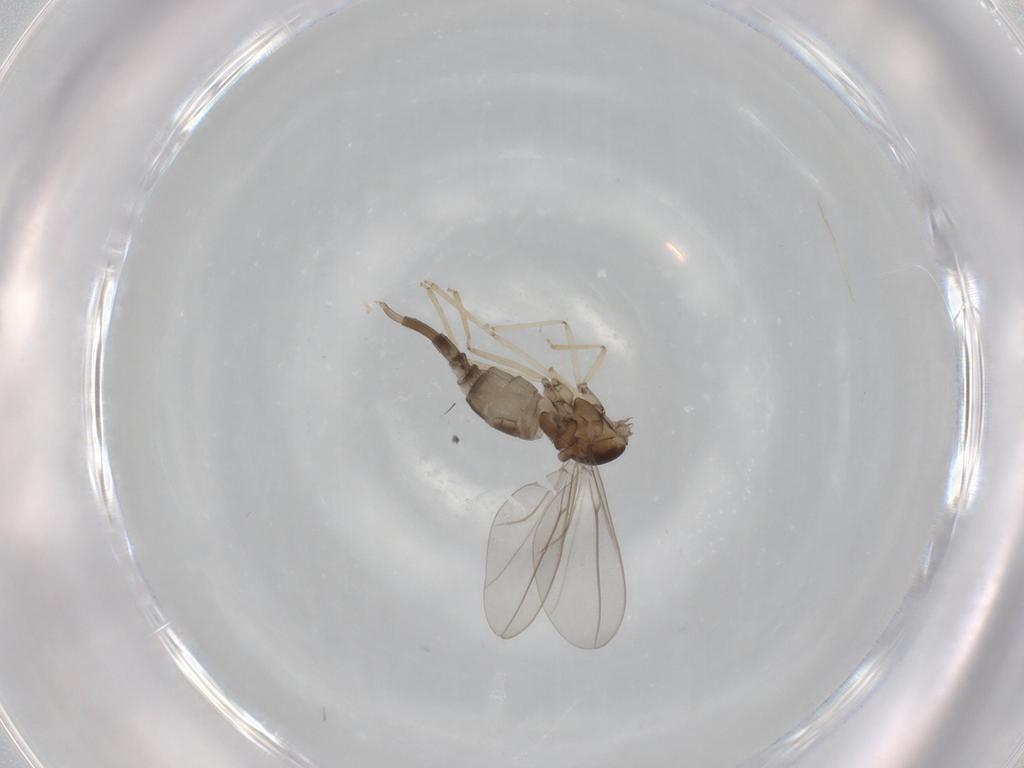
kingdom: Animalia
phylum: Arthropoda
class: Insecta
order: Diptera
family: Cecidomyiidae
